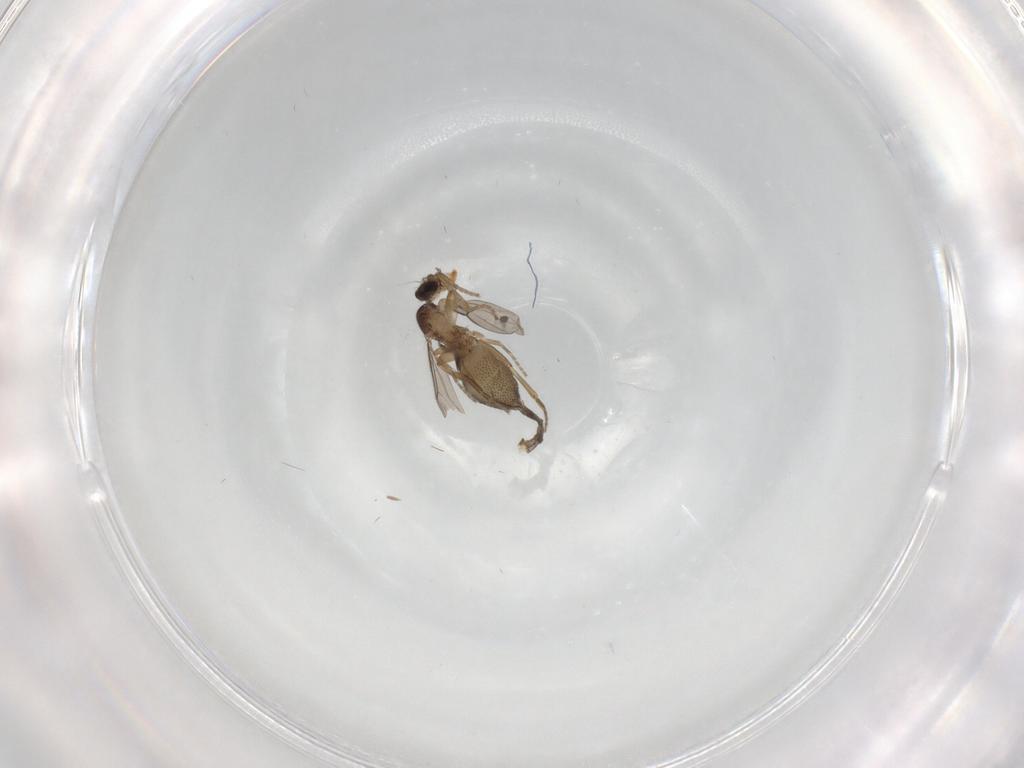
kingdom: Animalia
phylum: Arthropoda
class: Insecta
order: Diptera
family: Phoridae
